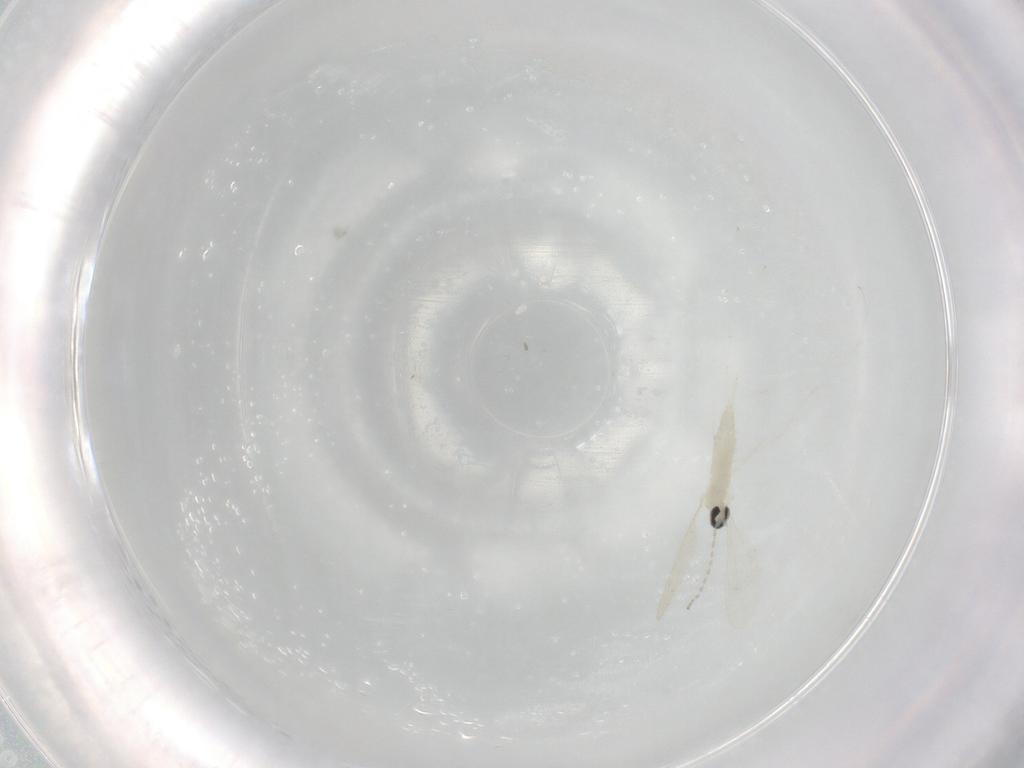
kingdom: Animalia
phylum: Arthropoda
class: Insecta
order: Diptera
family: Cecidomyiidae
